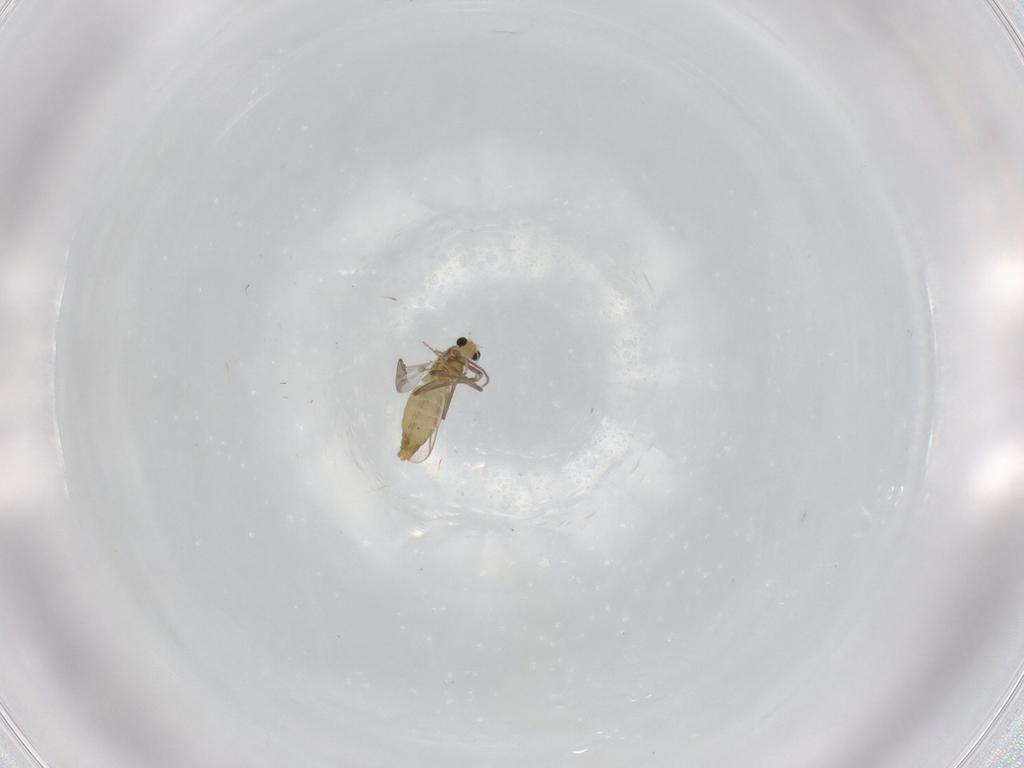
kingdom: Animalia
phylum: Arthropoda
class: Insecta
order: Diptera
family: Chironomidae
